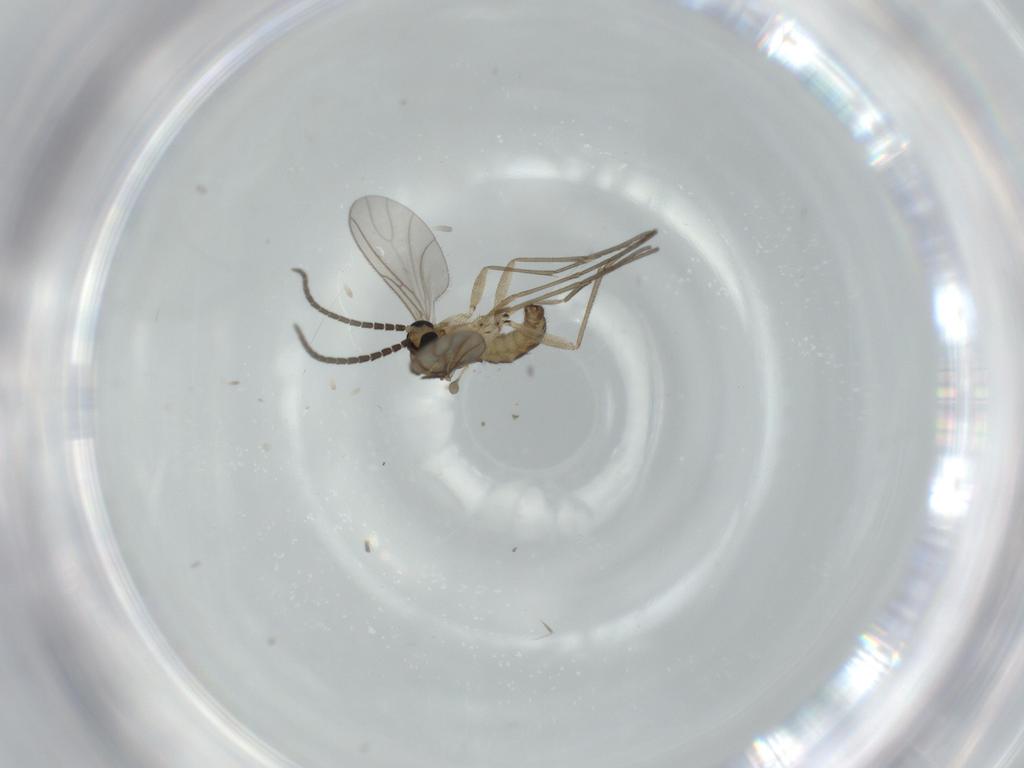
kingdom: Animalia
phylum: Arthropoda
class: Insecta
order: Diptera
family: Sciaridae
